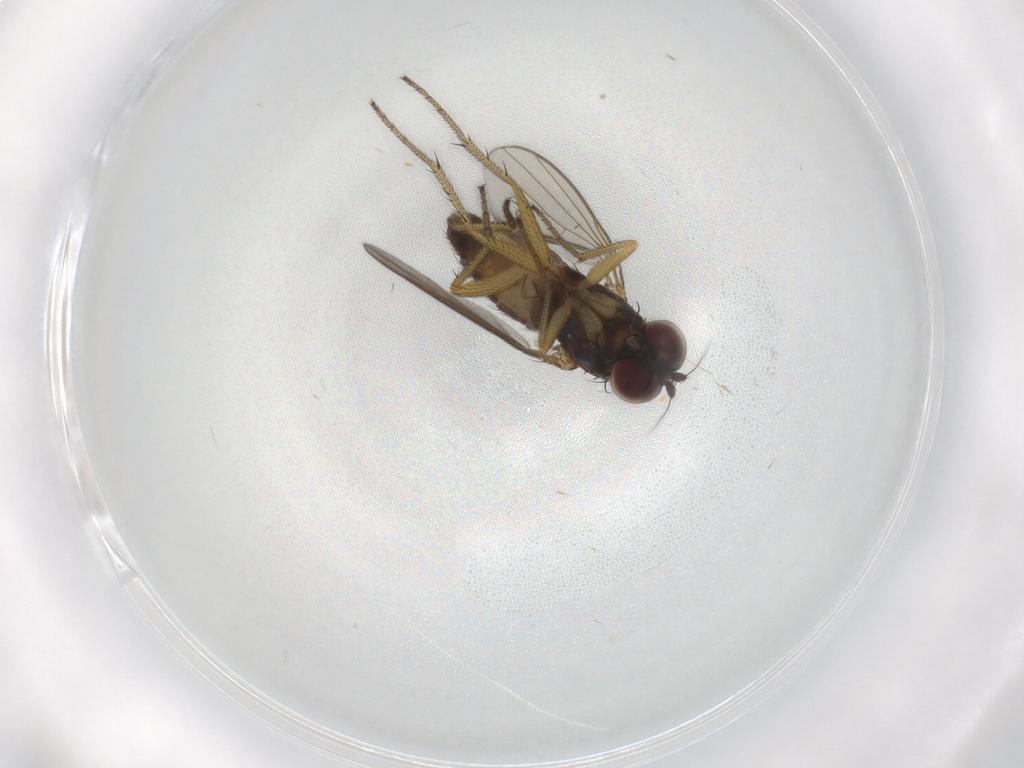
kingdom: Animalia
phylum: Arthropoda
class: Insecta
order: Diptera
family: Dolichopodidae
